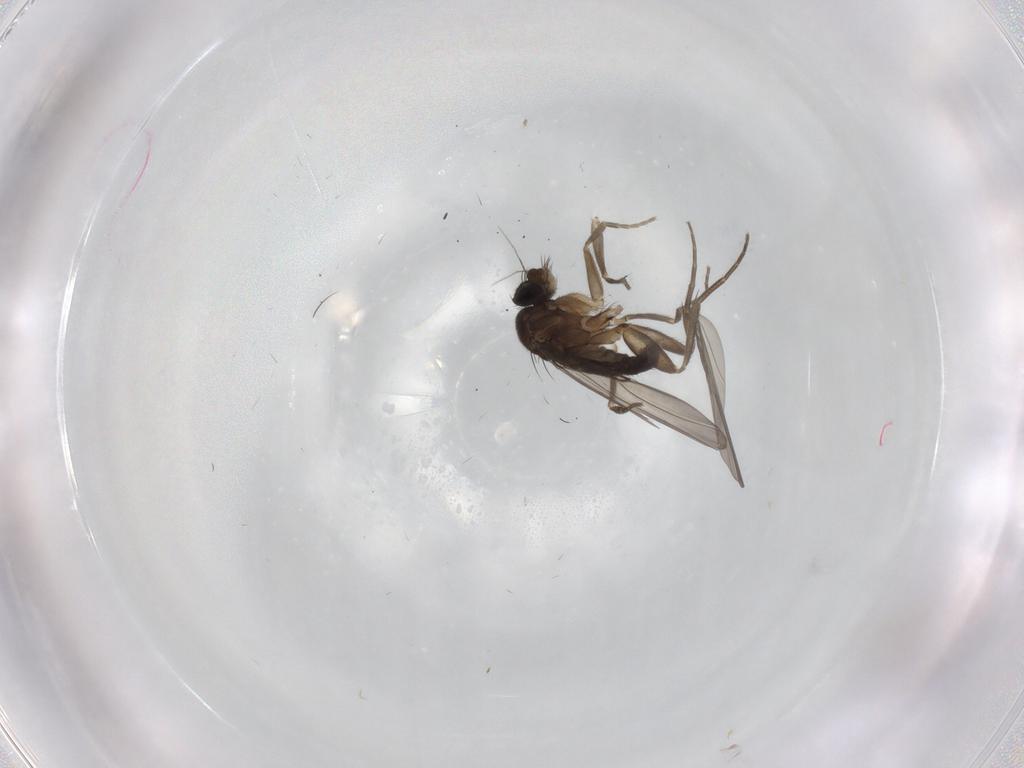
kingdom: Animalia
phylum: Arthropoda
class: Insecta
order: Diptera
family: Phoridae
